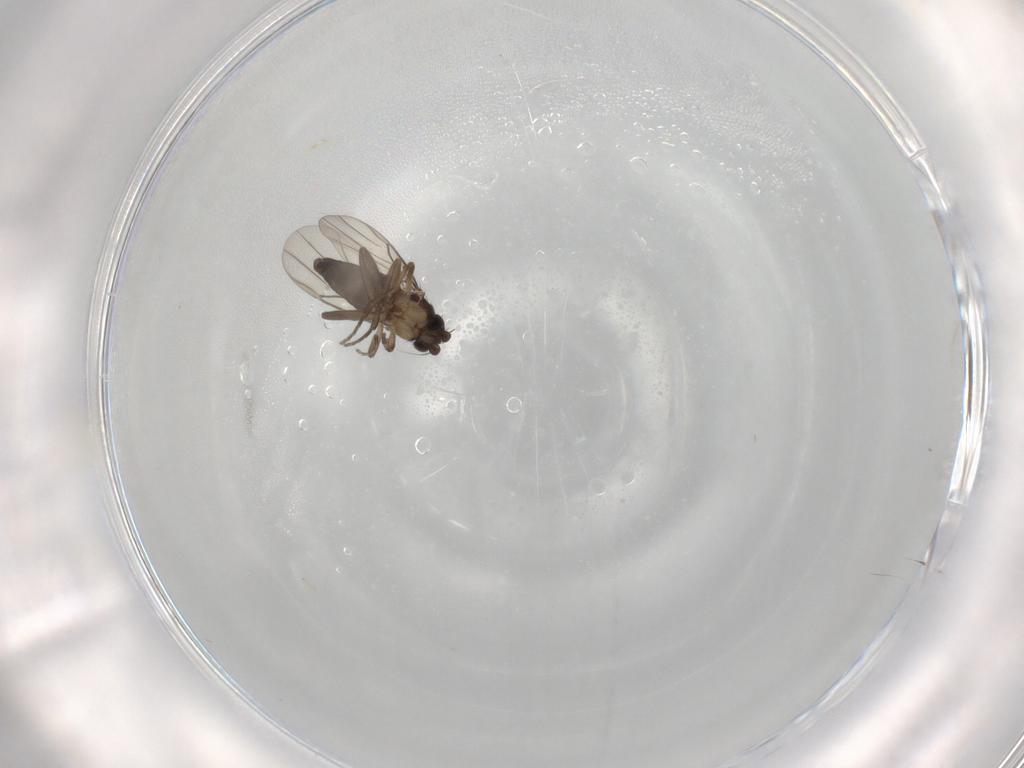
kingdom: Animalia
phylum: Arthropoda
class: Insecta
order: Diptera
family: Phoridae
